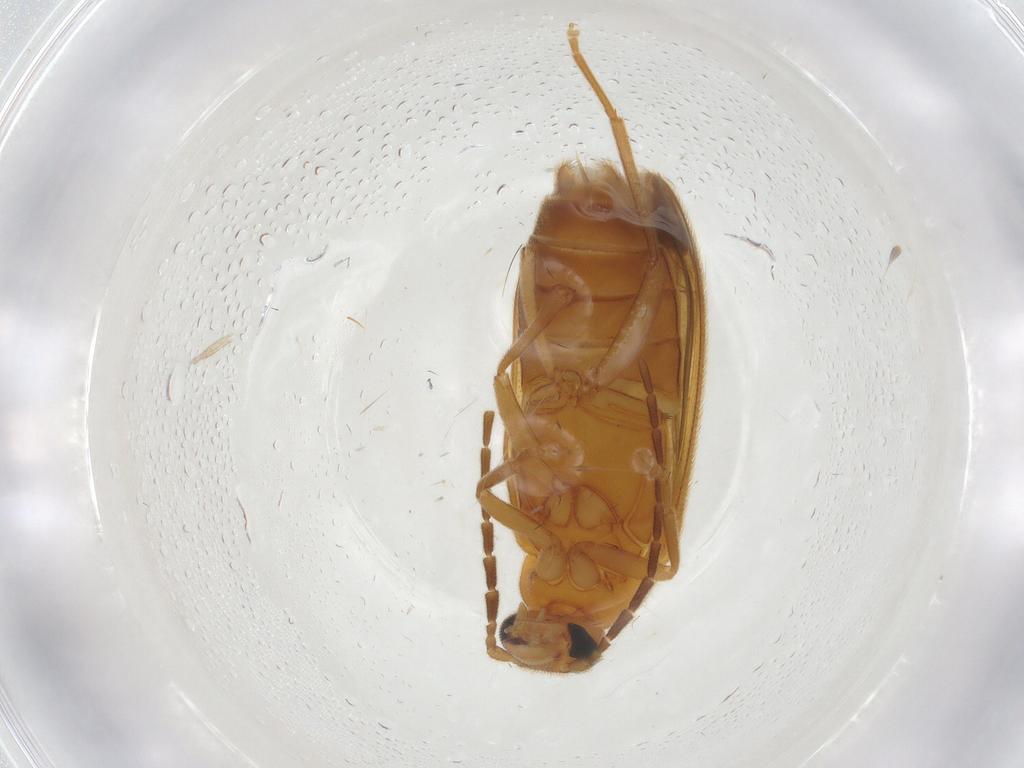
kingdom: Animalia
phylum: Arthropoda
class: Insecta
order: Coleoptera
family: Scraptiidae
